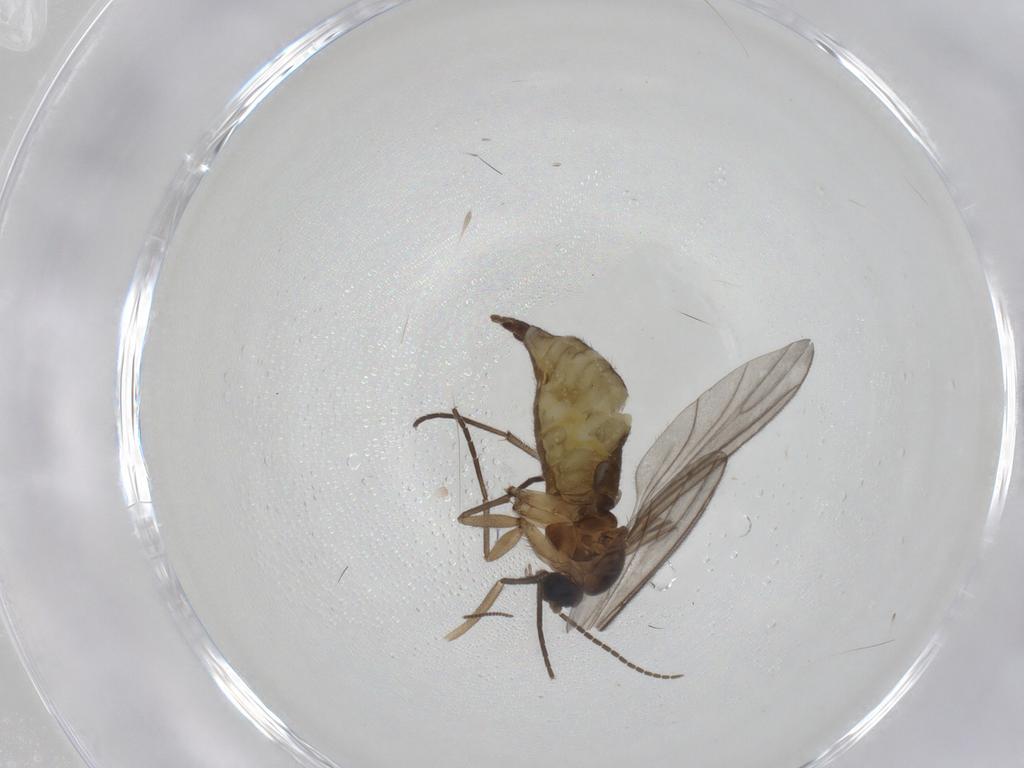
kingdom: Animalia
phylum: Arthropoda
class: Insecta
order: Diptera
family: Sciaridae
